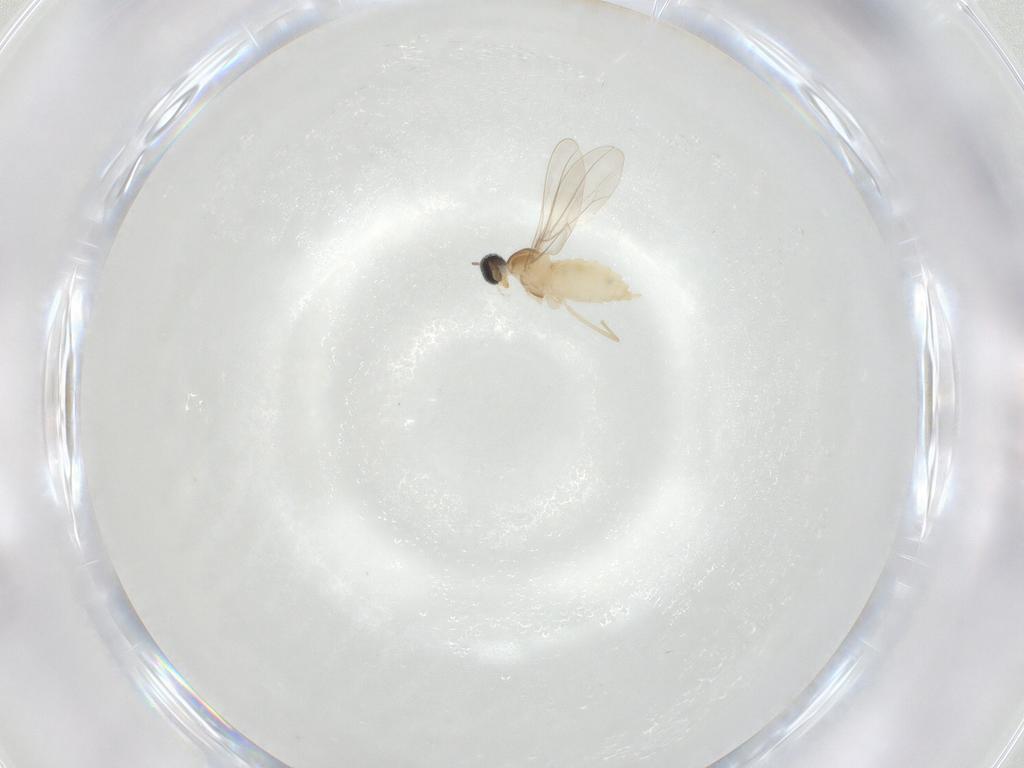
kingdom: Animalia
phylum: Arthropoda
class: Insecta
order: Diptera
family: Cecidomyiidae
